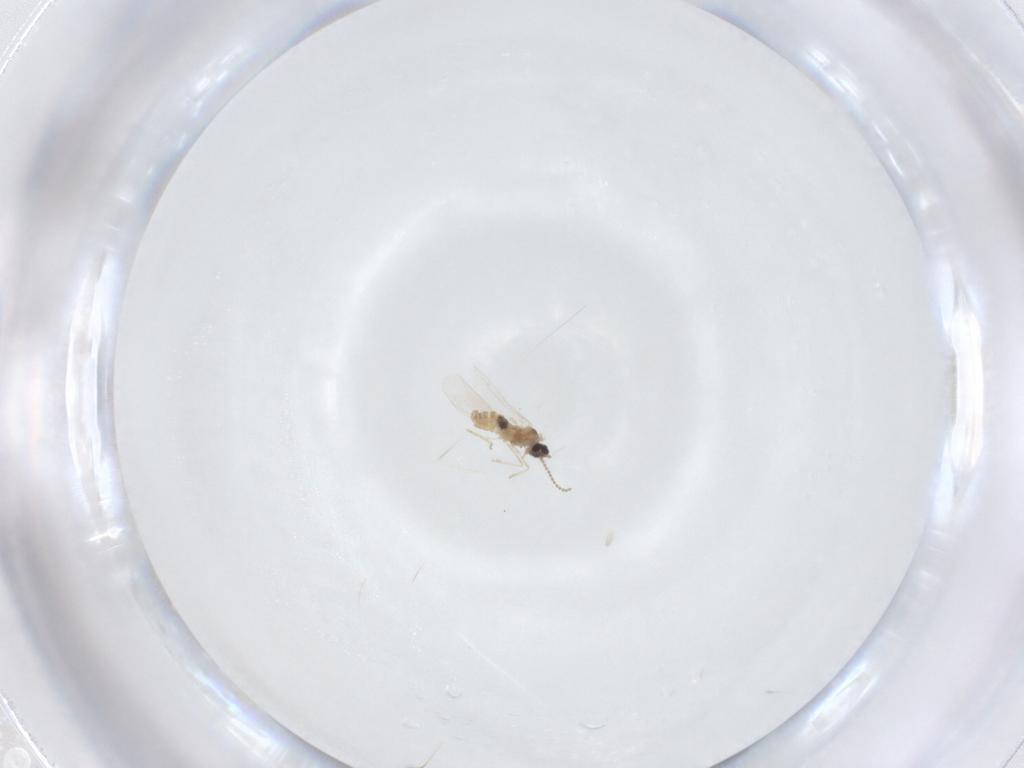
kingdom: Animalia
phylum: Arthropoda
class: Insecta
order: Diptera
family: Cecidomyiidae
